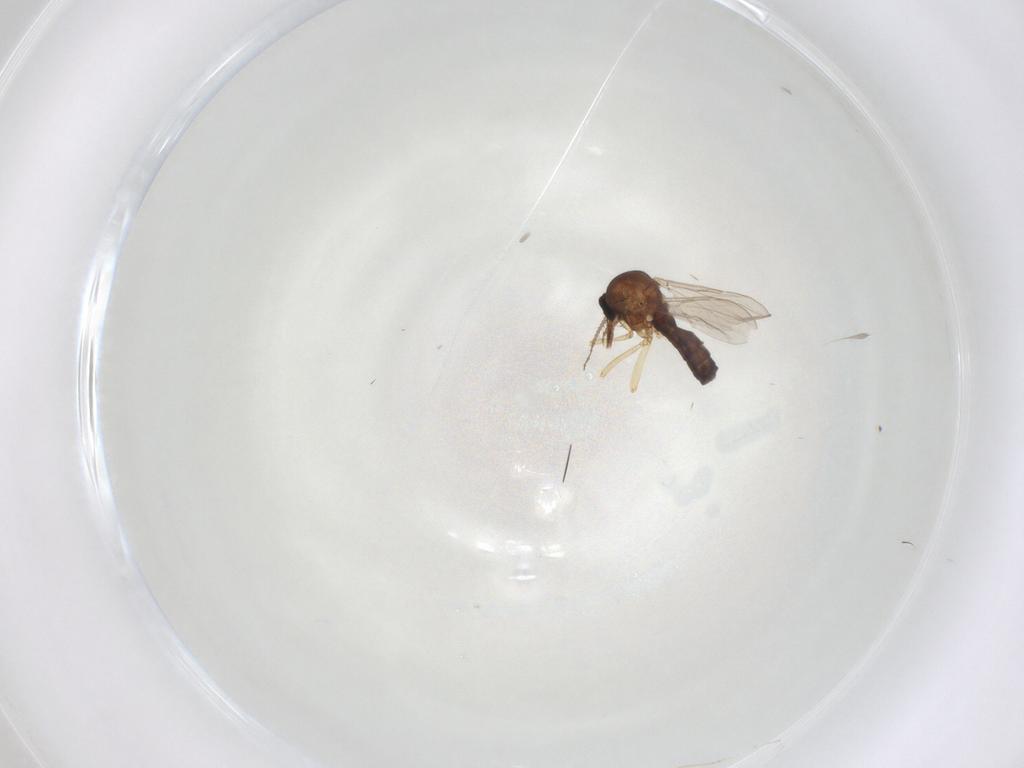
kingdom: Animalia
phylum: Arthropoda
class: Insecta
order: Diptera
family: Ceratopogonidae
